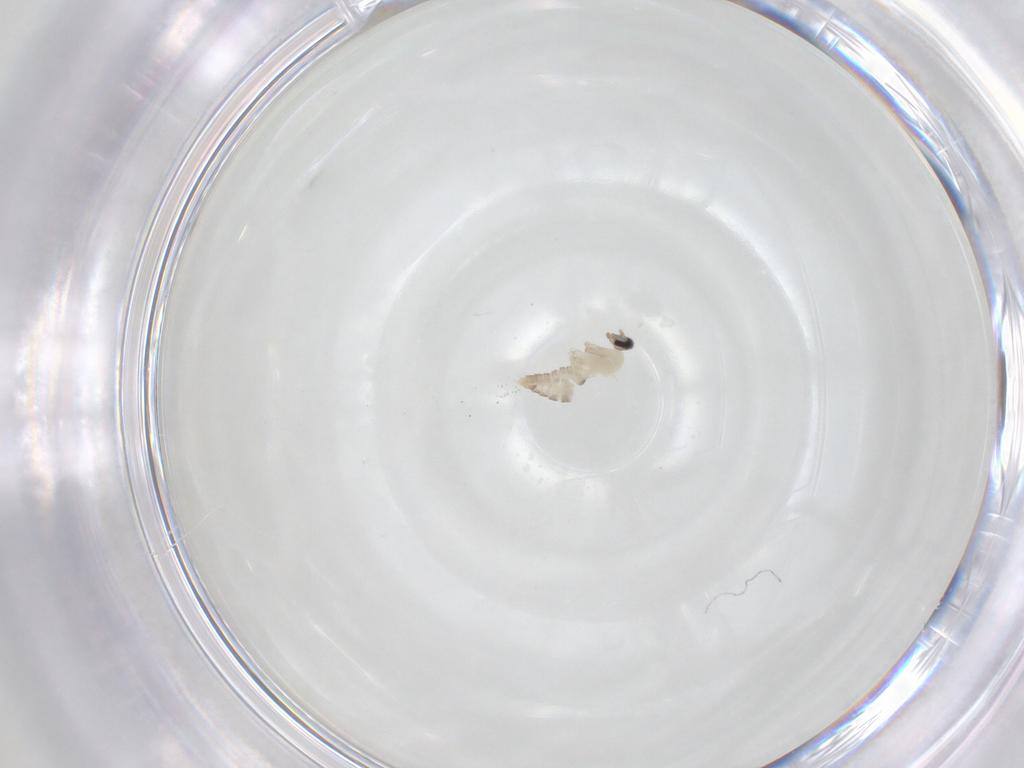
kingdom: Animalia
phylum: Arthropoda
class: Insecta
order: Diptera
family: Cecidomyiidae
